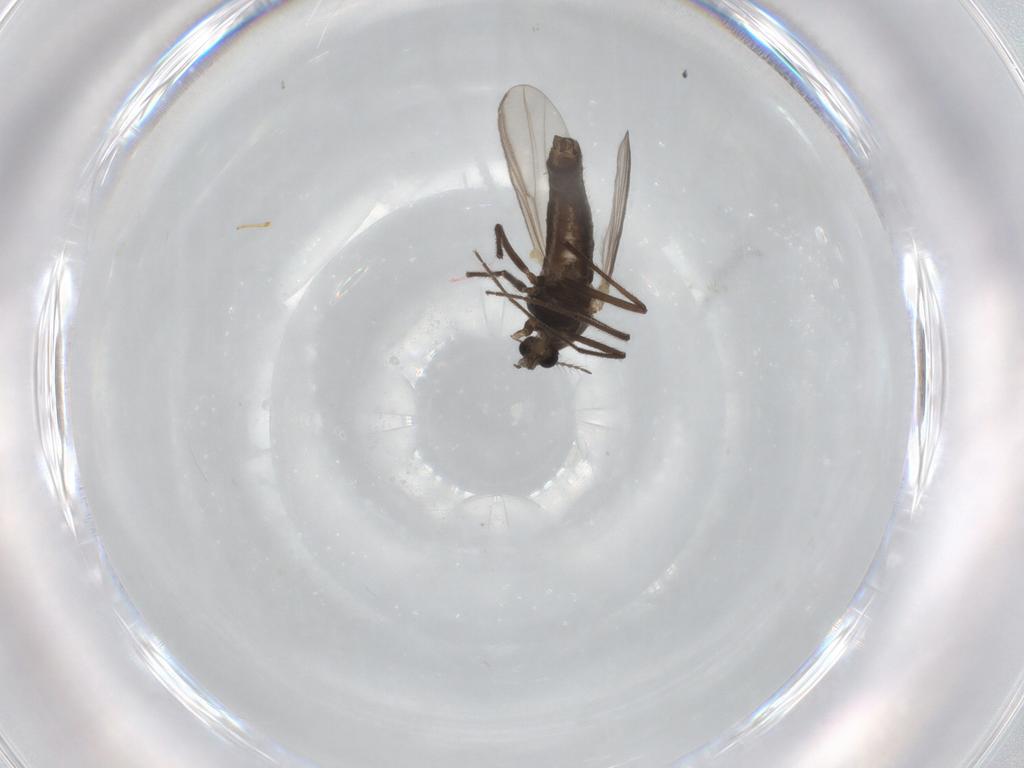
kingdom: Animalia
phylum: Arthropoda
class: Insecta
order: Diptera
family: Chironomidae
